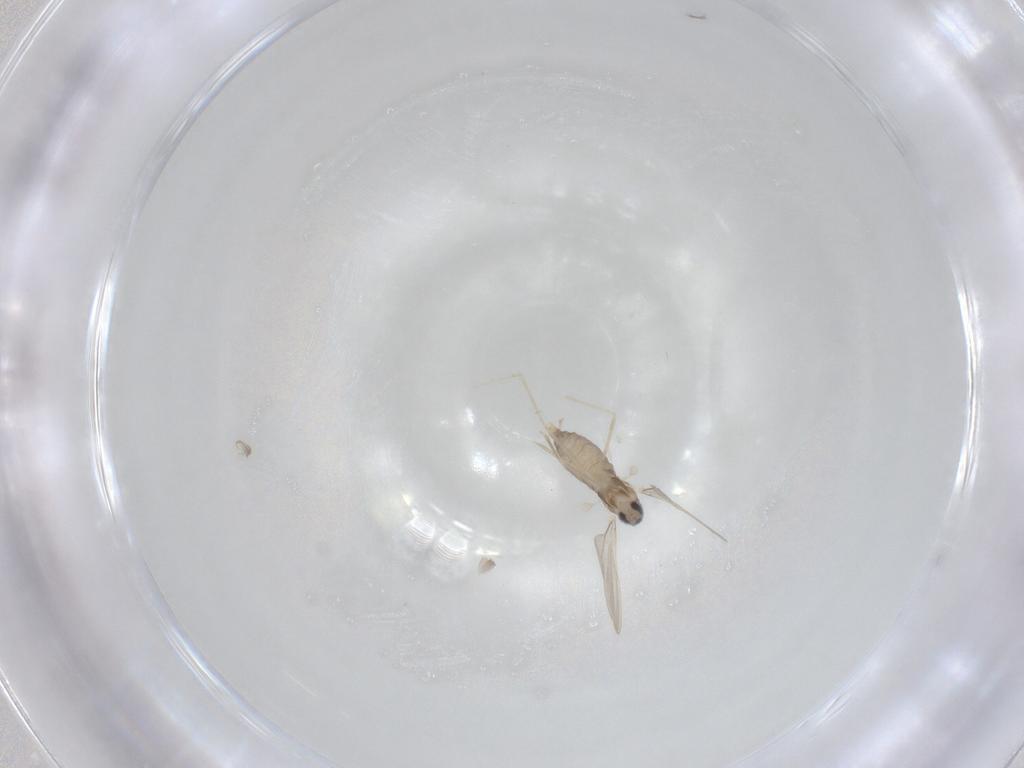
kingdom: Animalia
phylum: Arthropoda
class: Insecta
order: Diptera
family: Cecidomyiidae
